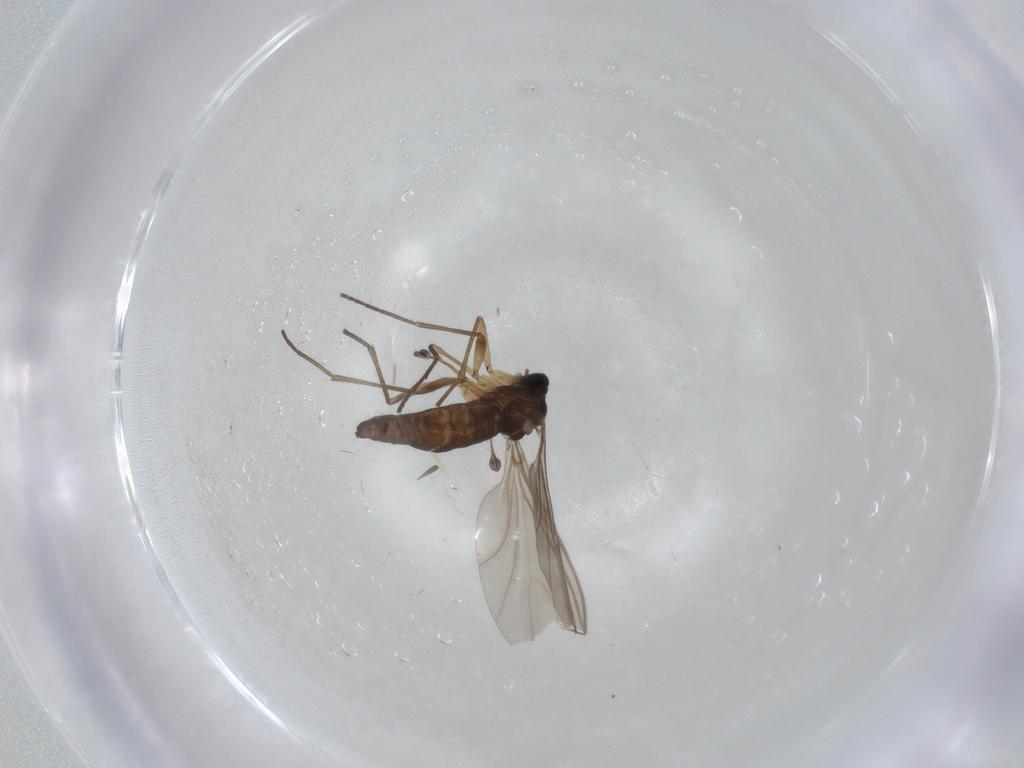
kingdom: Animalia
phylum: Arthropoda
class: Insecta
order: Diptera
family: Sciaridae
